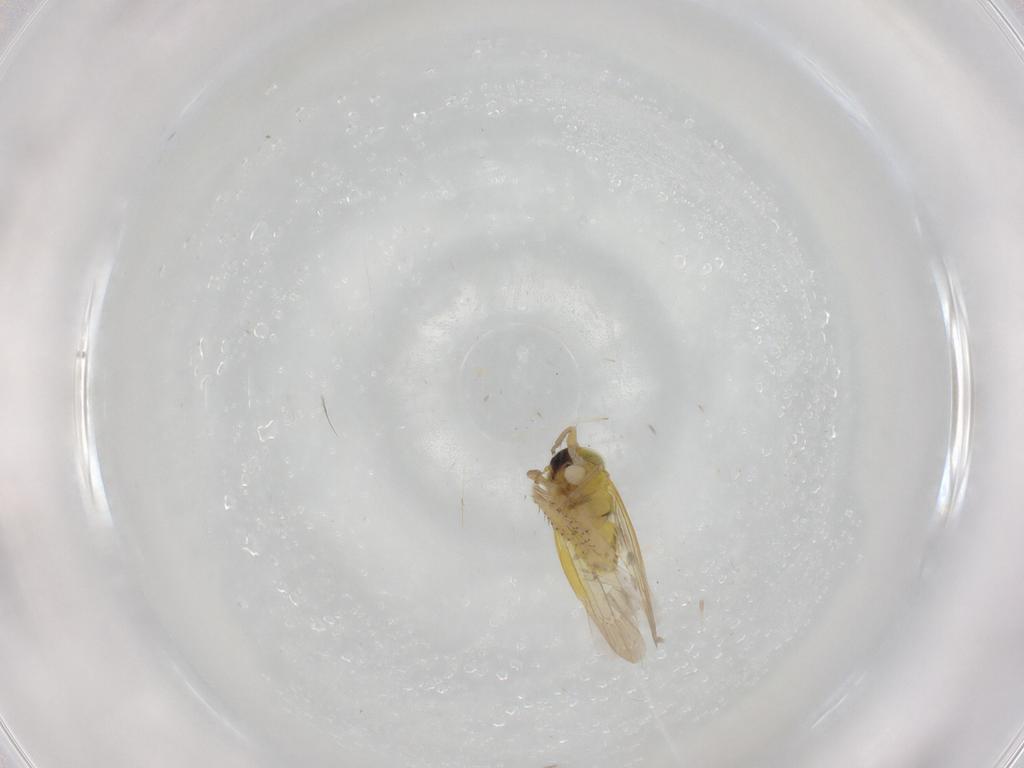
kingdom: Animalia
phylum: Arthropoda
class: Insecta
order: Hemiptera
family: Cicadellidae
